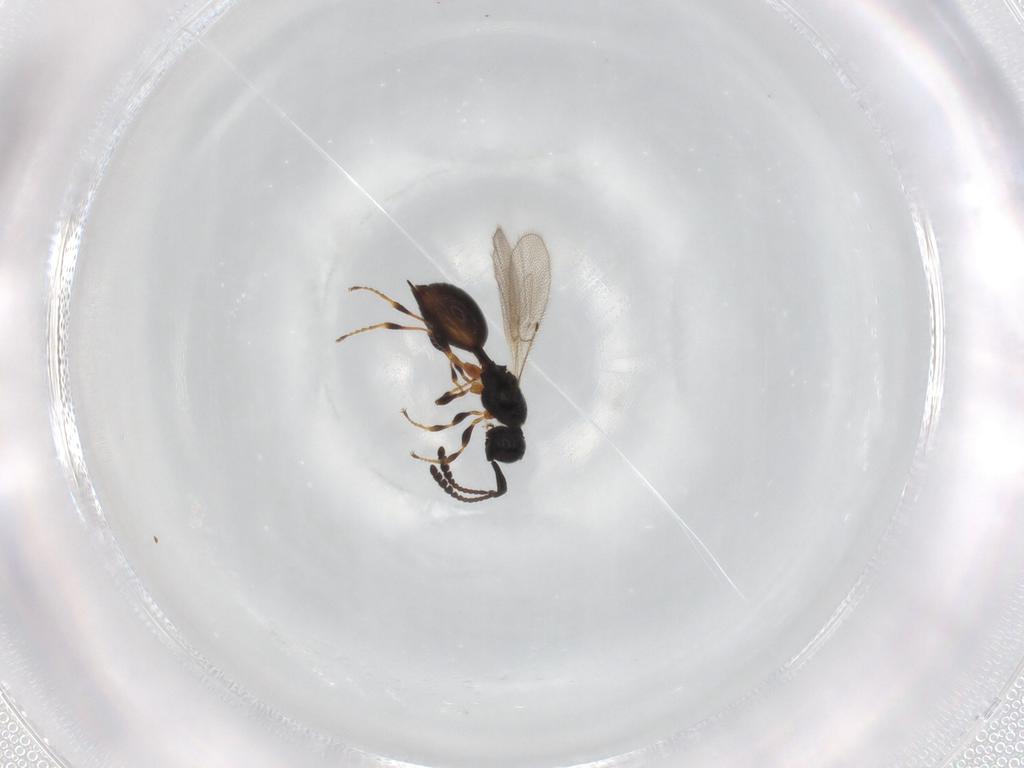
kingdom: Animalia
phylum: Arthropoda
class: Insecta
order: Hymenoptera
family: Diapriidae
